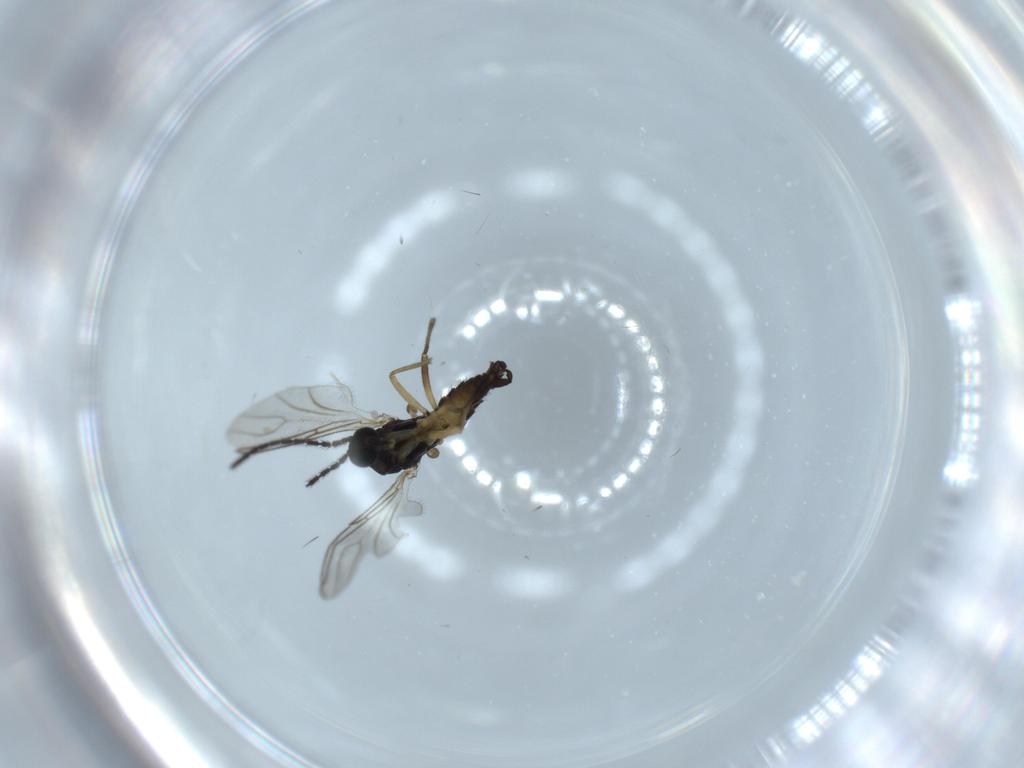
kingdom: Animalia
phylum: Arthropoda
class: Insecta
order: Diptera
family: Sciaridae
